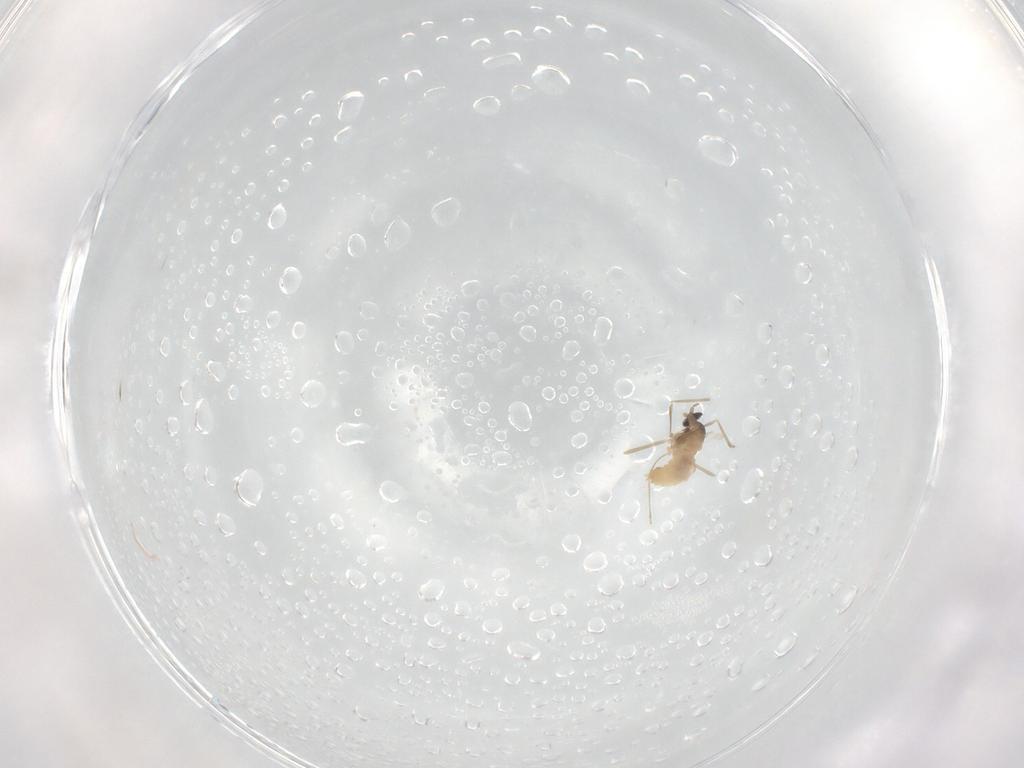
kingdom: Animalia
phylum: Arthropoda
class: Insecta
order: Diptera
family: Cecidomyiidae
